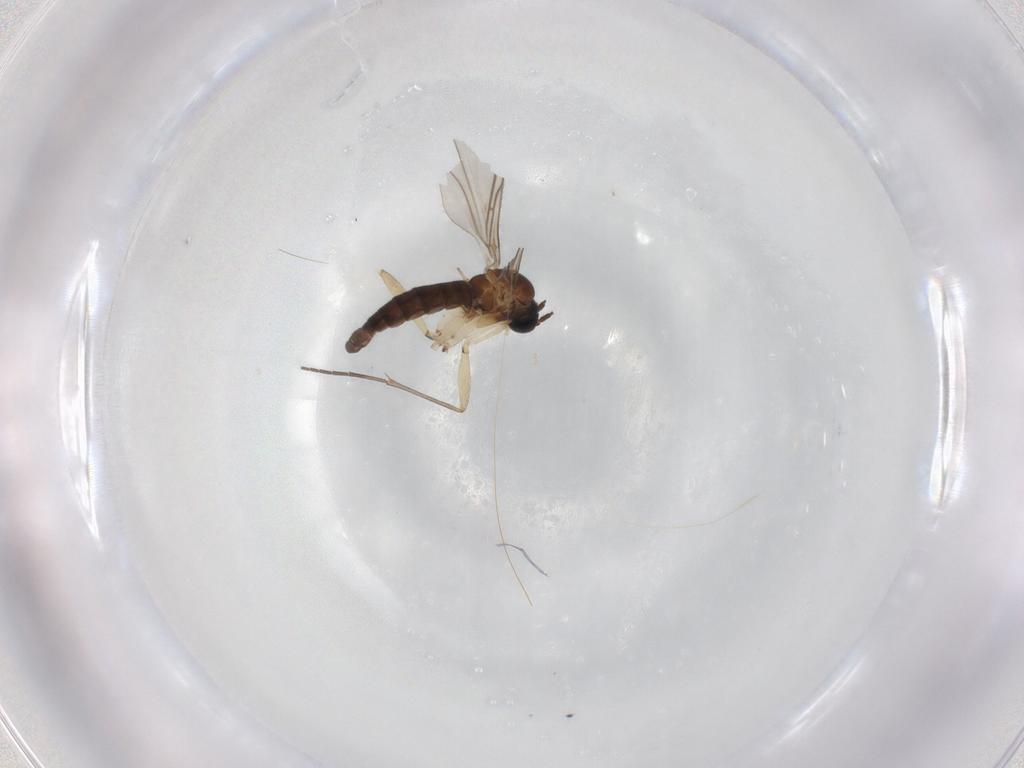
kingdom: Animalia
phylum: Arthropoda
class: Insecta
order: Diptera
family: Sciaridae
